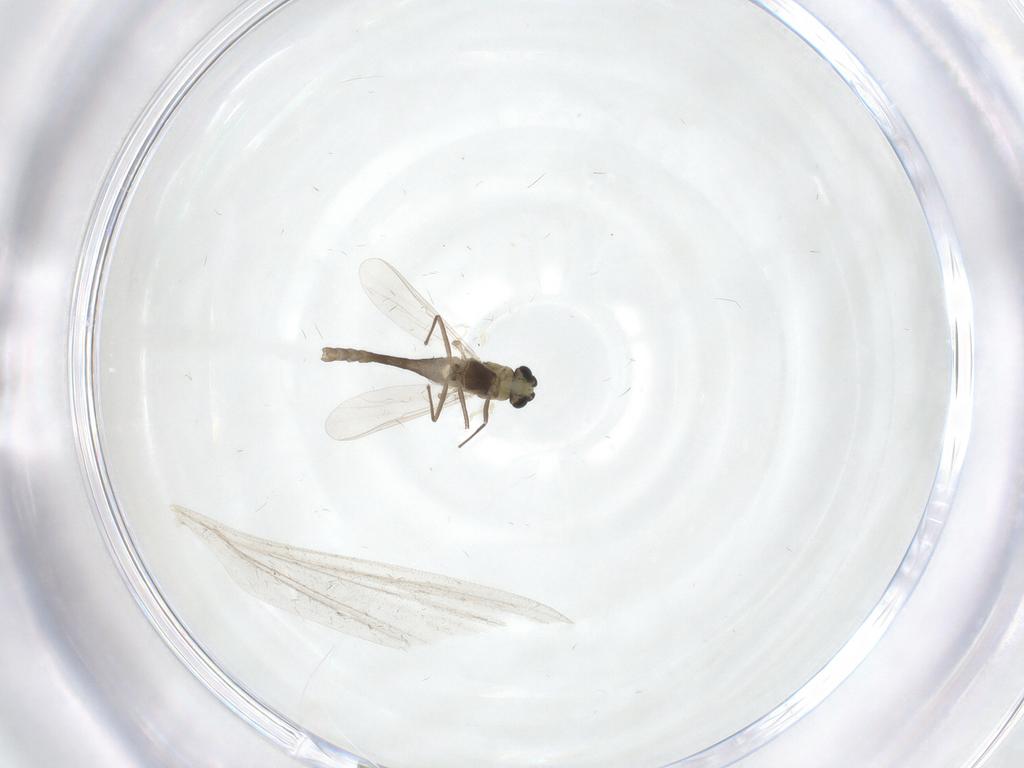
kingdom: Animalia
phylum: Arthropoda
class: Insecta
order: Diptera
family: Chironomidae
